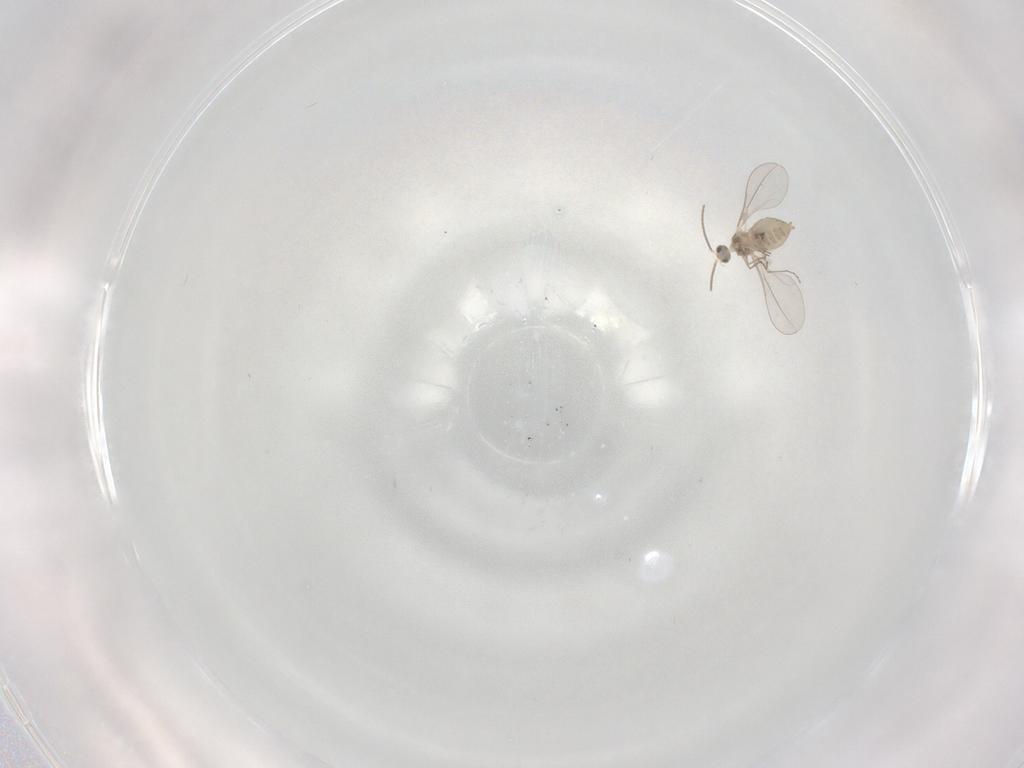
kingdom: Animalia
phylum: Arthropoda
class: Insecta
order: Diptera
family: Cecidomyiidae
